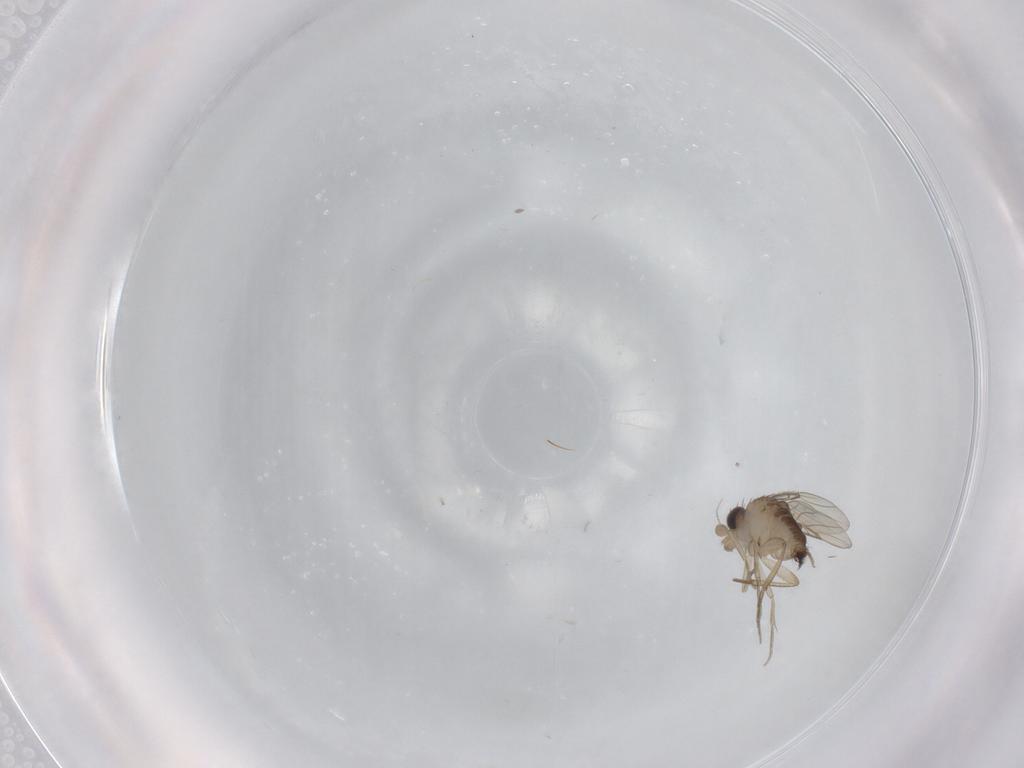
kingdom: Animalia
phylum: Arthropoda
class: Insecta
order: Diptera
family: Phoridae
